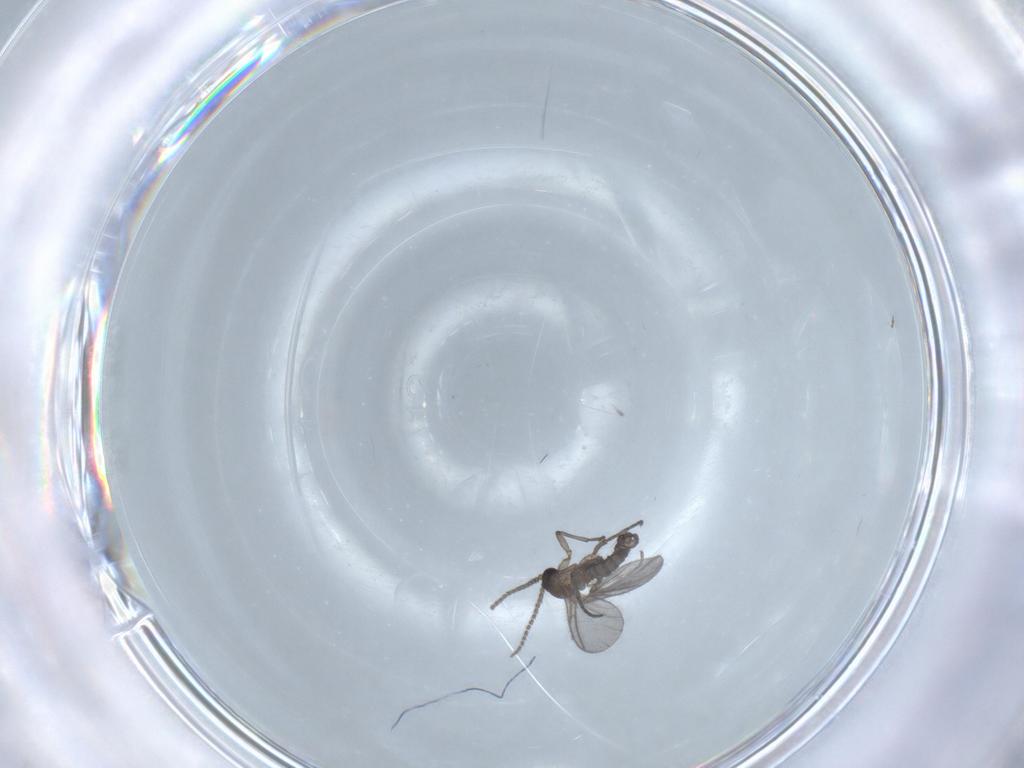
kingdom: Animalia
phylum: Arthropoda
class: Insecta
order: Diptera
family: Sciaridae
